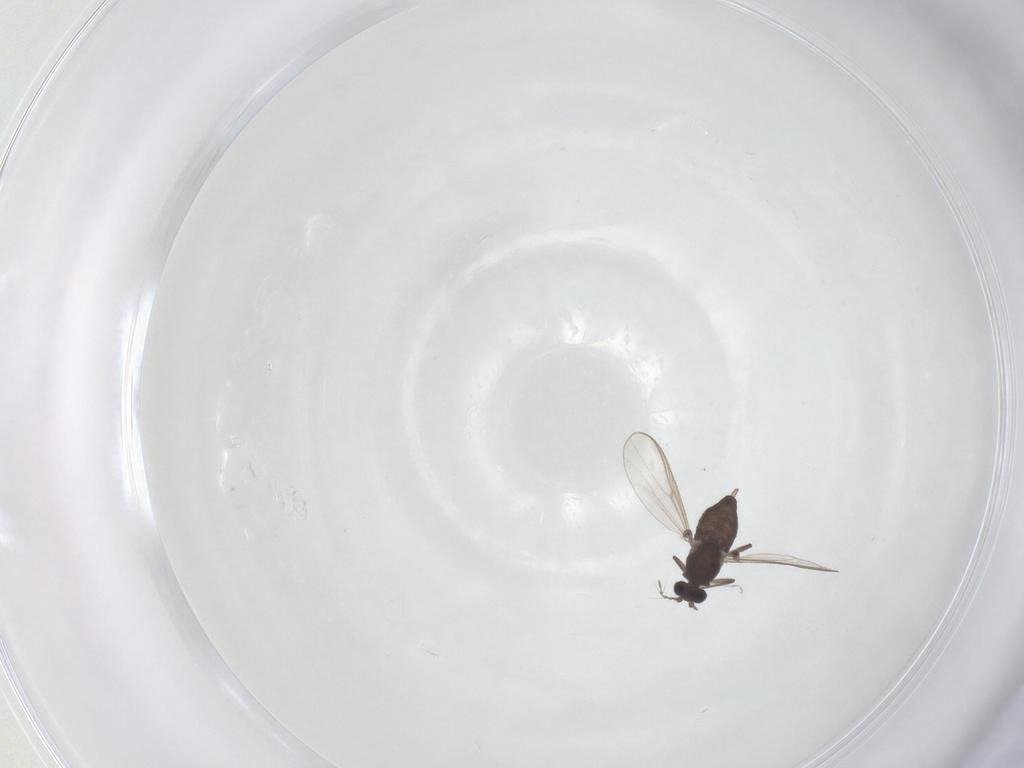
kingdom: Animalia
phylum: Arthropoda
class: Insecta
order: Diptera
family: Chironomidae
